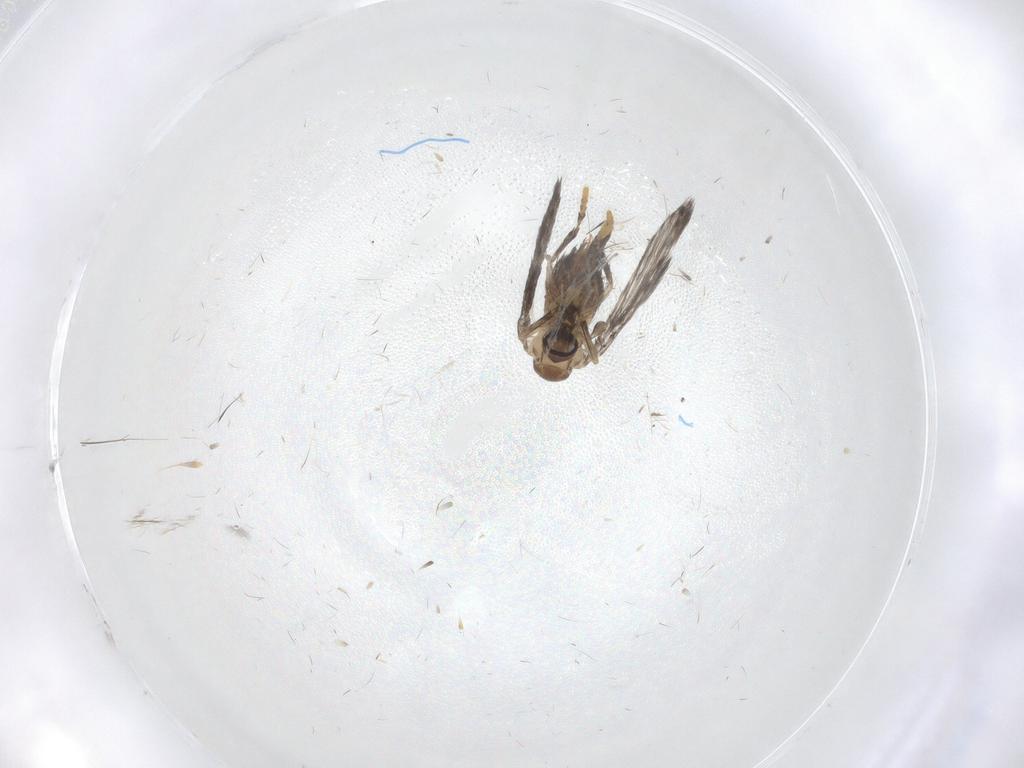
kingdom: Animalia
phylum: Arthropoda
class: Insecta
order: Diptera
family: Psychodidae
